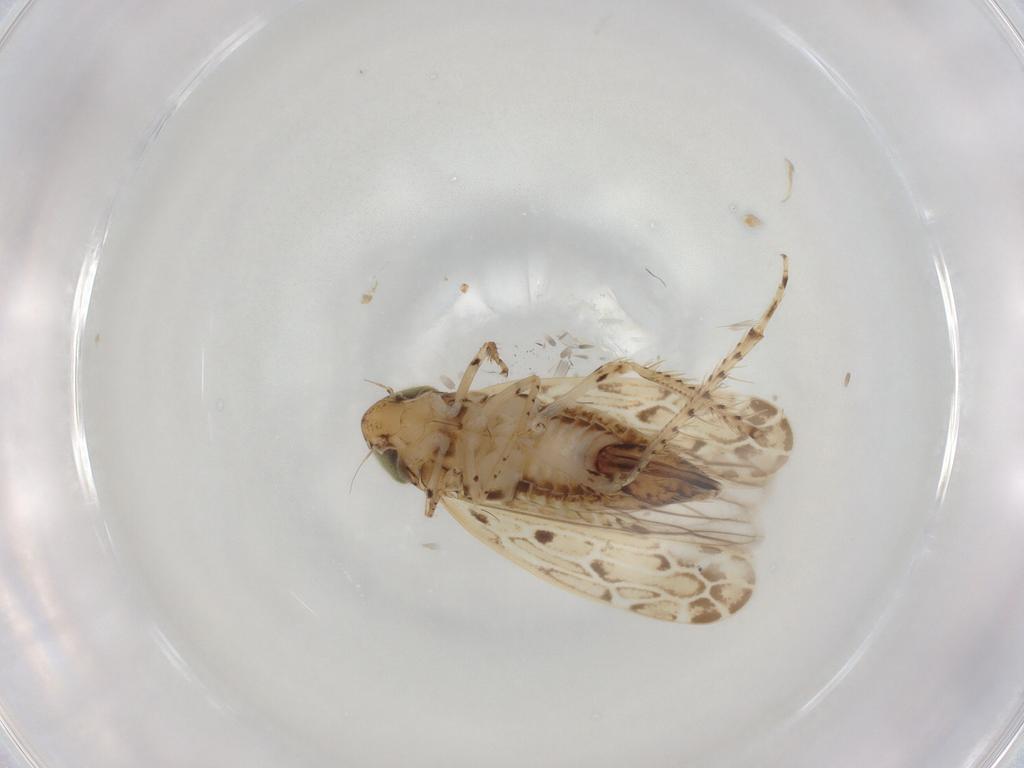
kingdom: Animalia
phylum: Arthropoda
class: Insecta
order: Hemiptera
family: Cicadellidae
